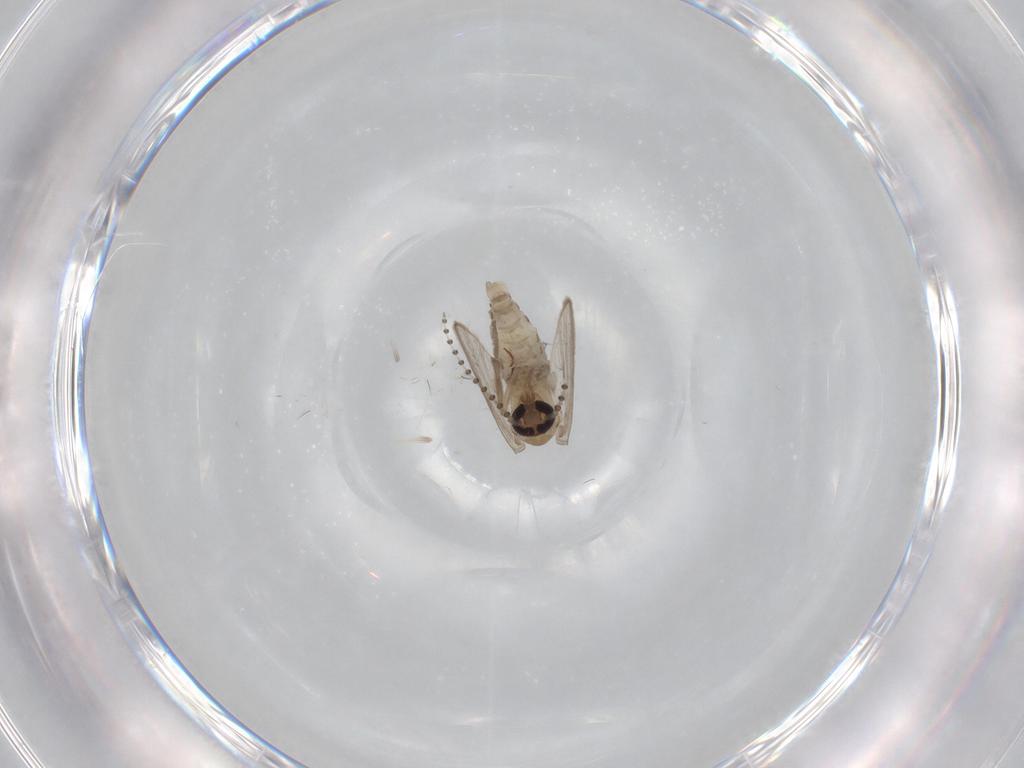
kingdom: Animalia
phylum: Arthropoda
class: Insecta
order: Diptera
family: Psychodidae
